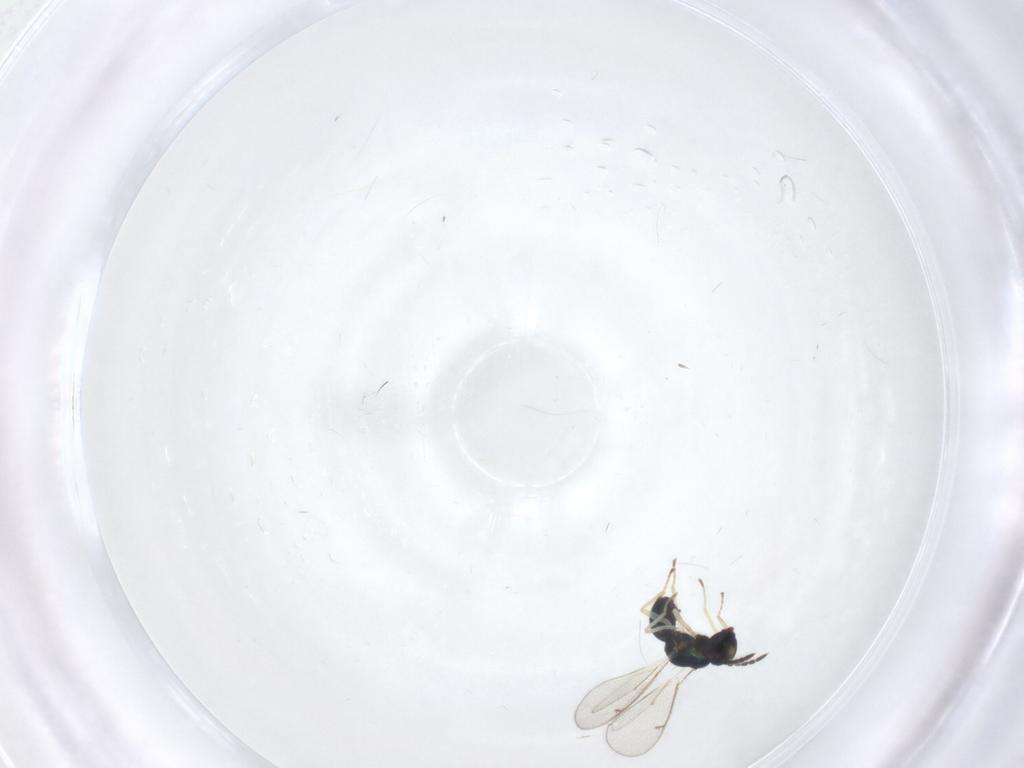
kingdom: Animalia
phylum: Arthropoda
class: Insecta
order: Hymenoptera
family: Eulophidae
